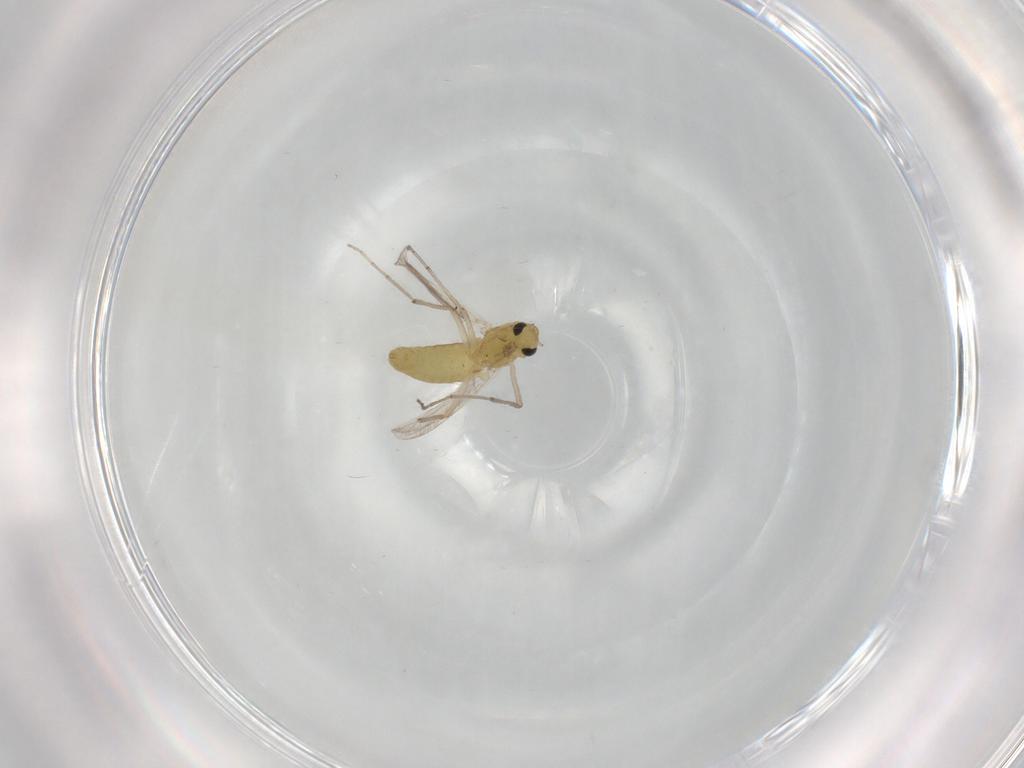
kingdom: Animalia
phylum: Arthropoda
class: Insecta
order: Diptera
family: Chironomidae
